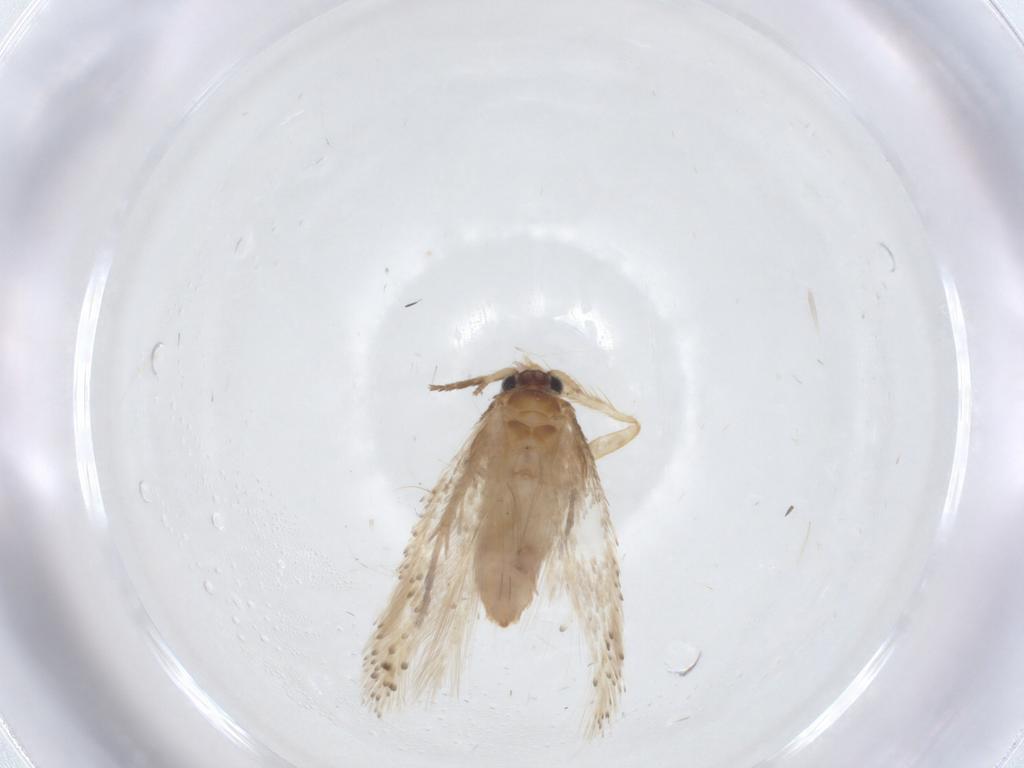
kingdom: Animalia
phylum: Arthropoda
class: Insecta
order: Lepidoptera
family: Nepticulidae
